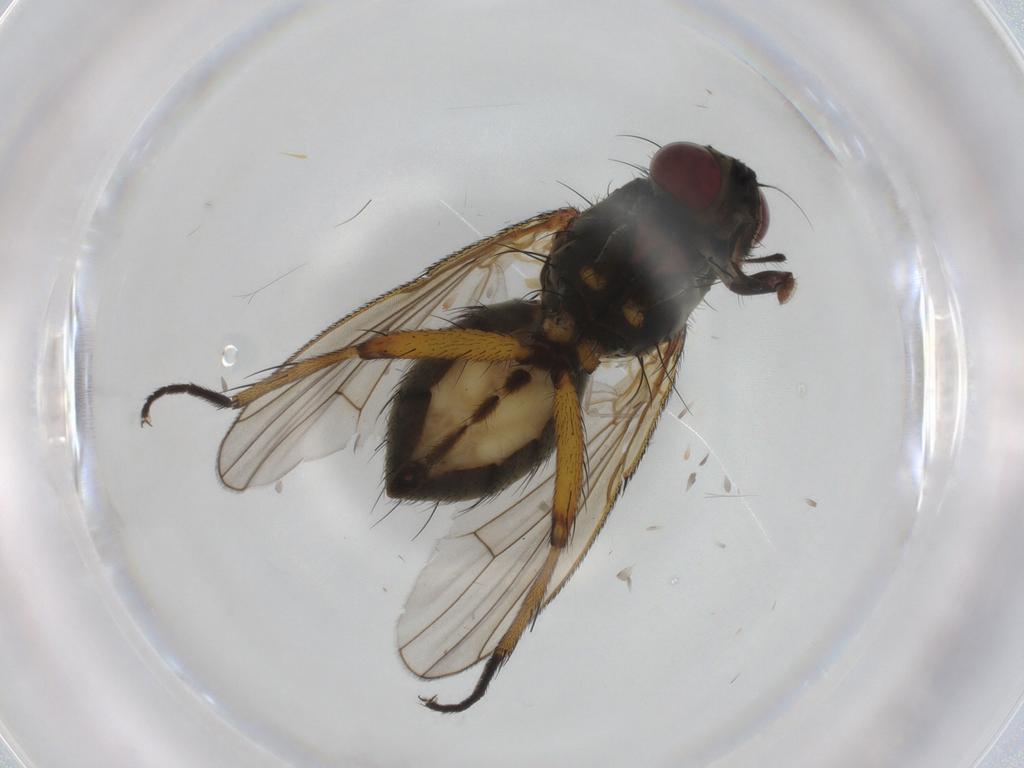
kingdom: Animalia
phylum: Arthropoda
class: Insecta
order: Diptera
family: Muscidae
